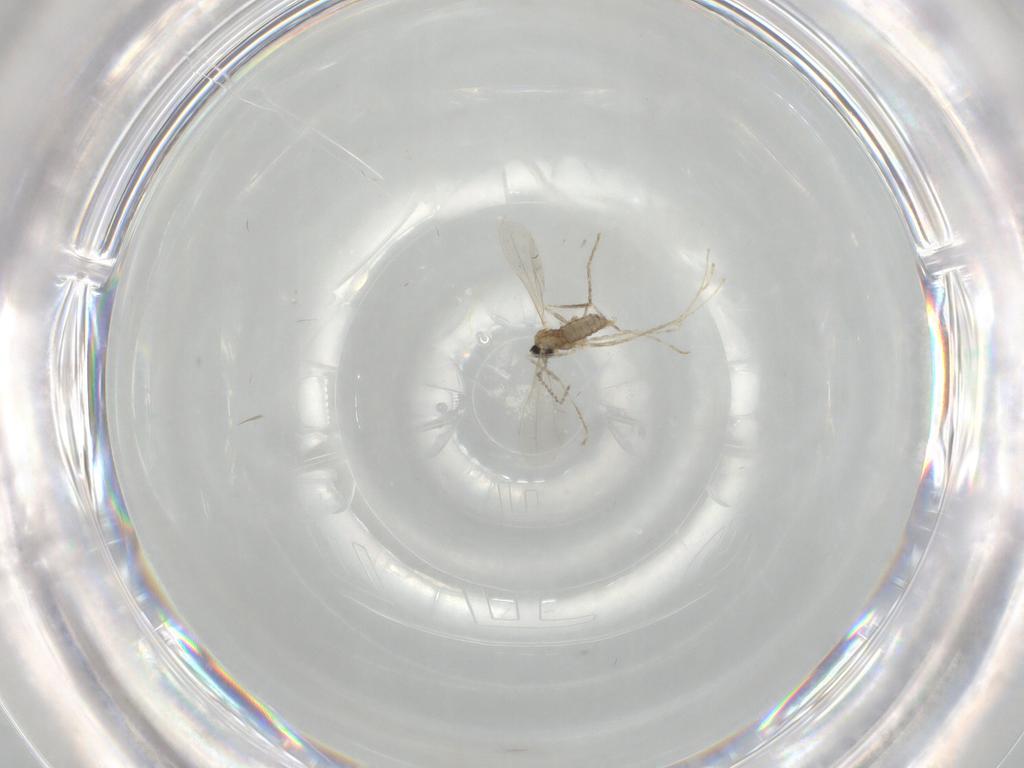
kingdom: Animalia
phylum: Arthropoda
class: Insecta
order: Diptera
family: Cecidomyiidae
